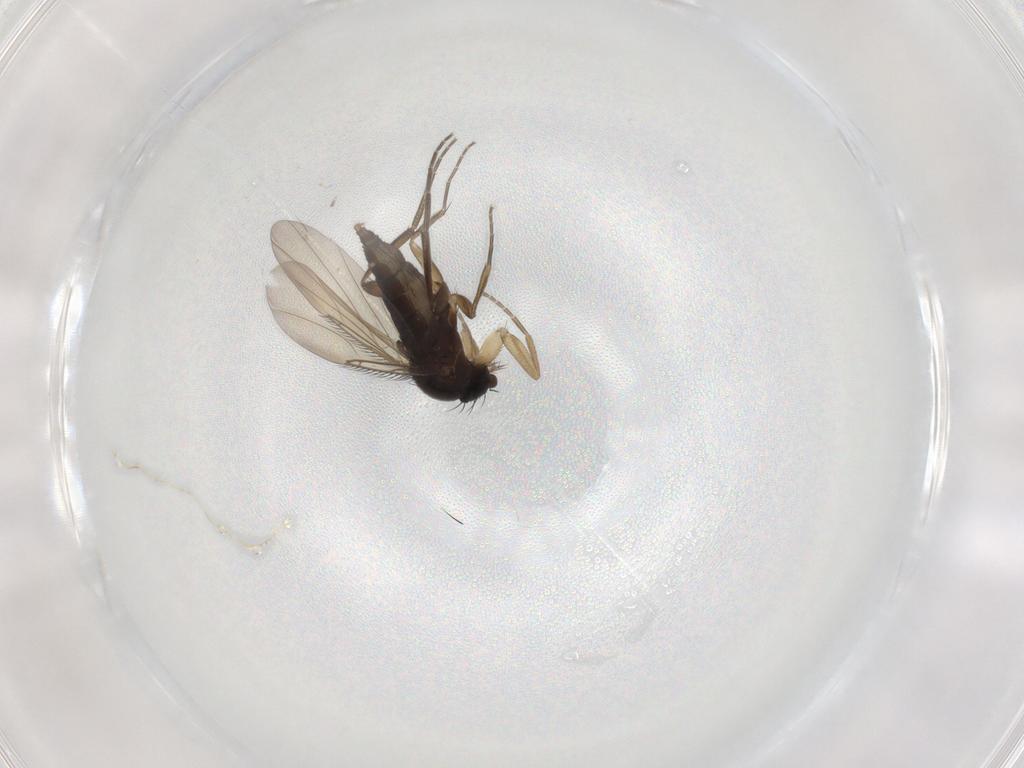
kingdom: Animalia
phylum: Arthropoda
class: Insecta
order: Diptera
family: Phoridae
